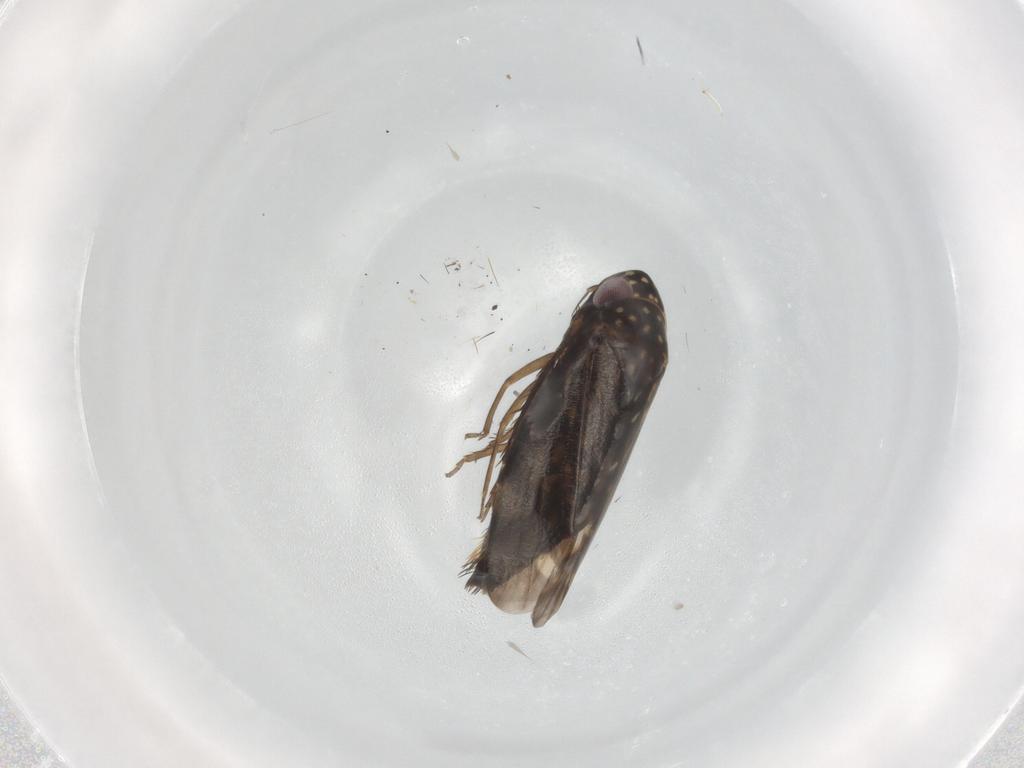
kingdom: Animalia
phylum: Arthropoda
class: Insecta
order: Hemiptera
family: Cicadellidae
